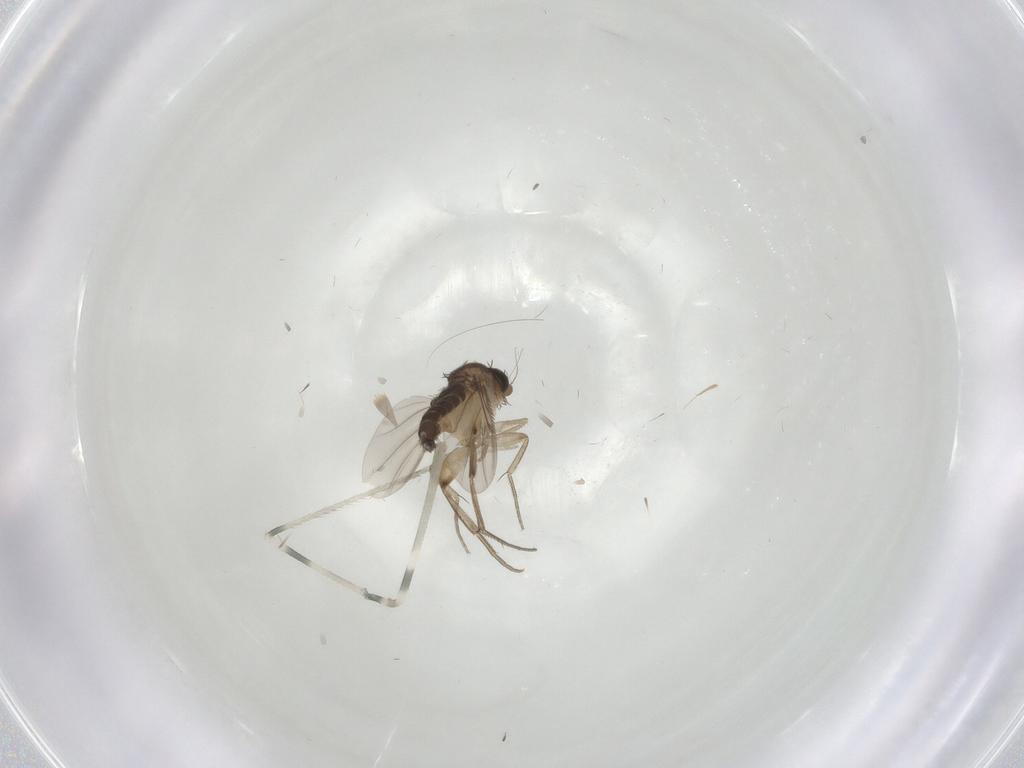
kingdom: Animalia
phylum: Arthropoda
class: Insecta
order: Diptera
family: Phoridae
